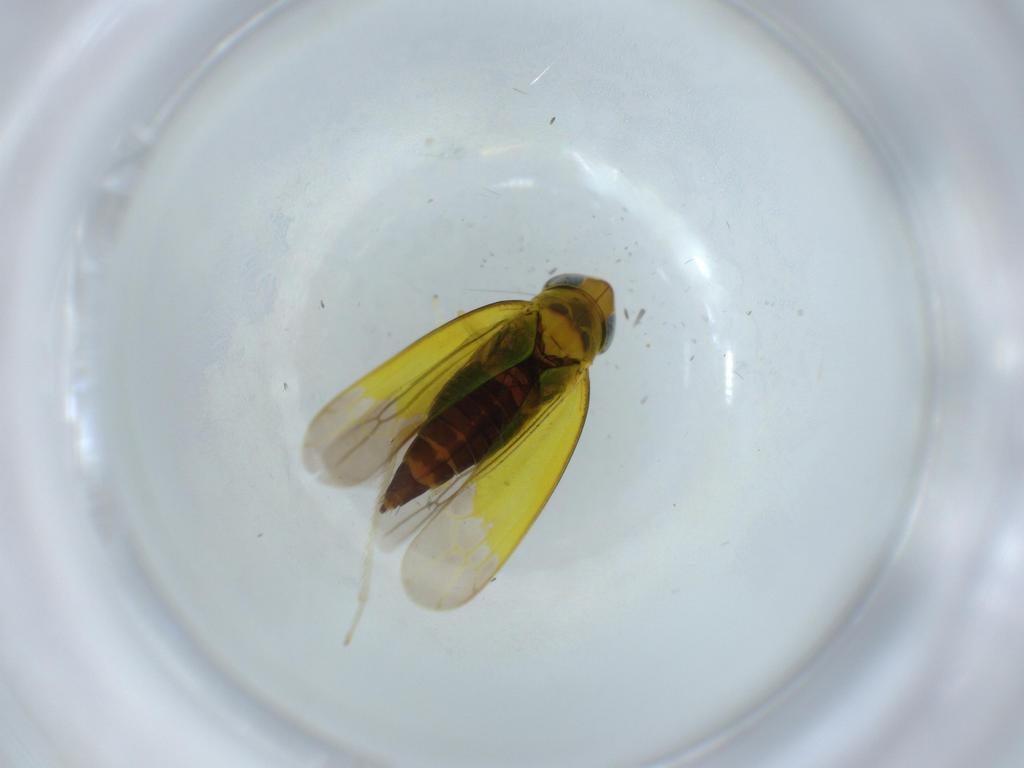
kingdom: Animalia
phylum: Arthropoda
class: Insecta
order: Hemiptera
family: Cicadellidae
